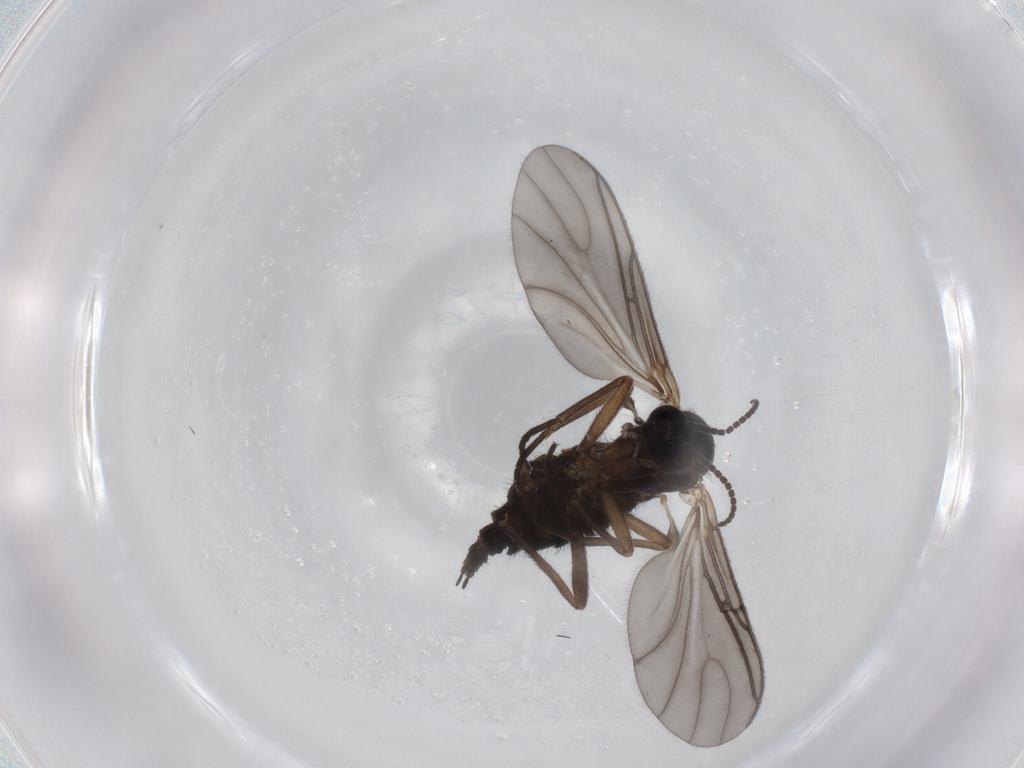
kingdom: Animalia
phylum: Arthropoda
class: Insecta
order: Diptera
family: Sciaridae
